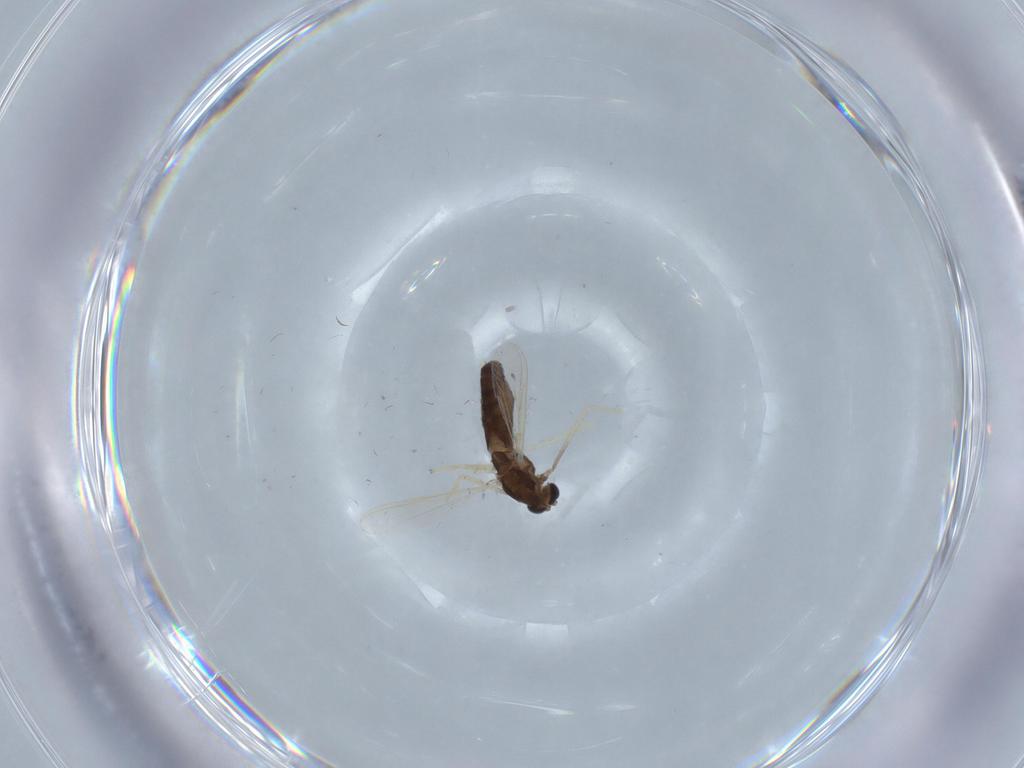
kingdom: Animalia
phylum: Arthropoda
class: Insecta
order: Diptera
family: Chironomidae
